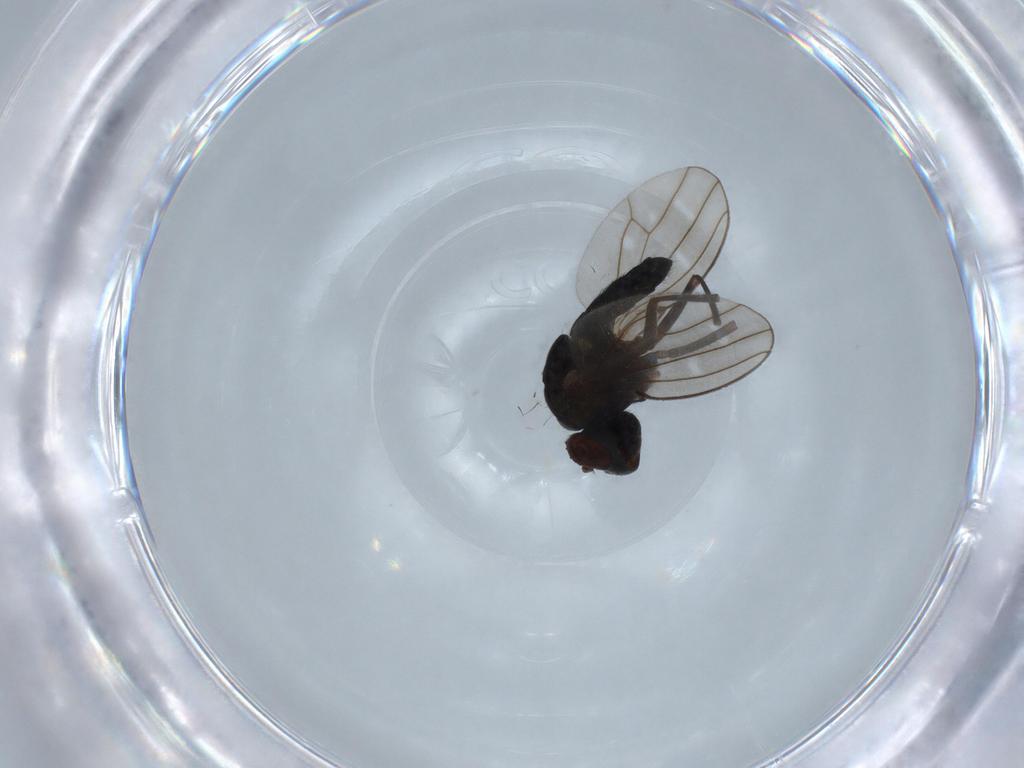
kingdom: Animalia
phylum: Arthropoda
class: Insecta
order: Diptera
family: Ephydridae
